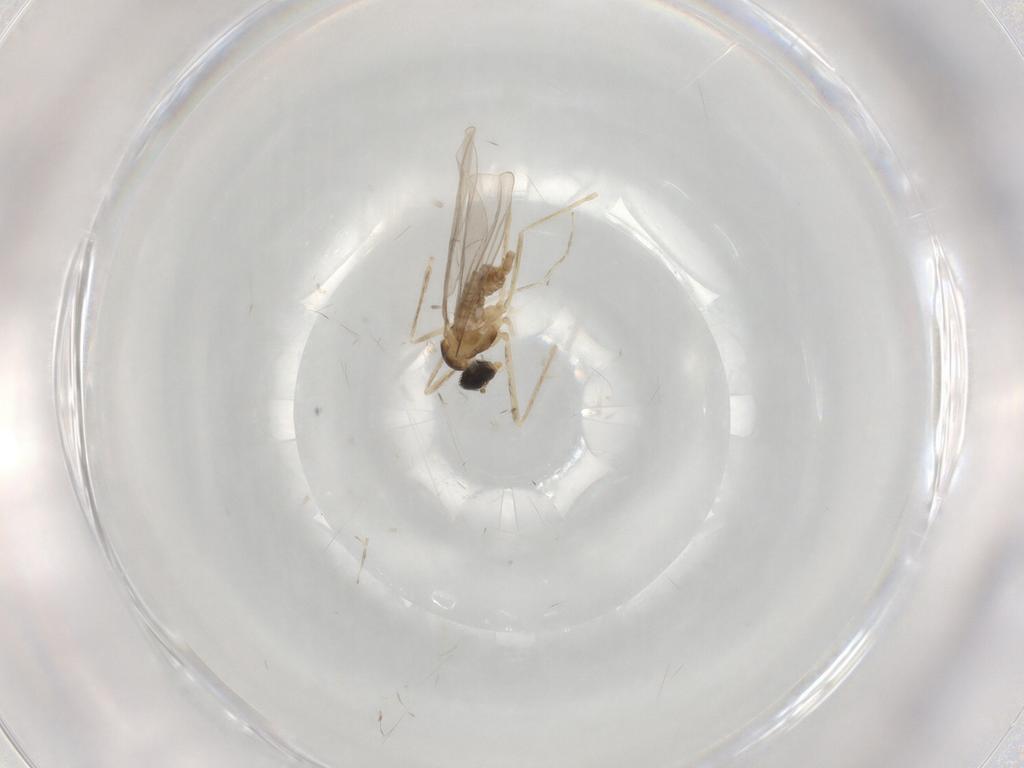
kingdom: Animalia
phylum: Arthropoda
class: Insecta
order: Diptera
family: Cecidomyiidae
